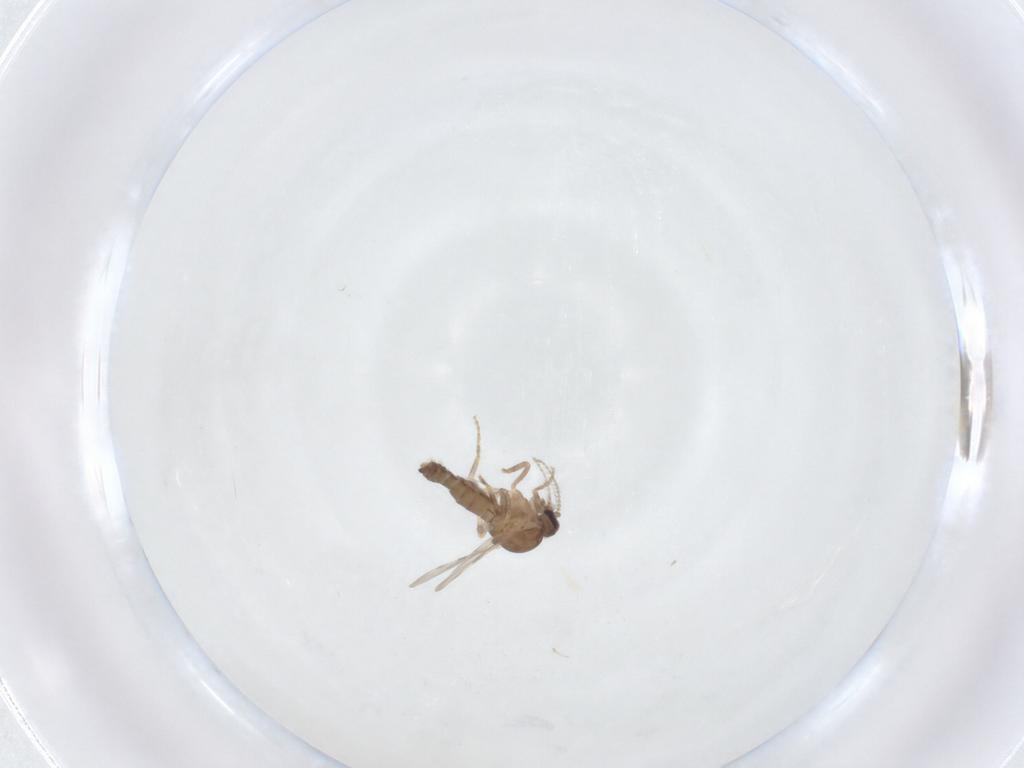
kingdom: Animalia
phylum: Arthropoda
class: Insecta
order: Diptera
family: Ceratopogonidae
